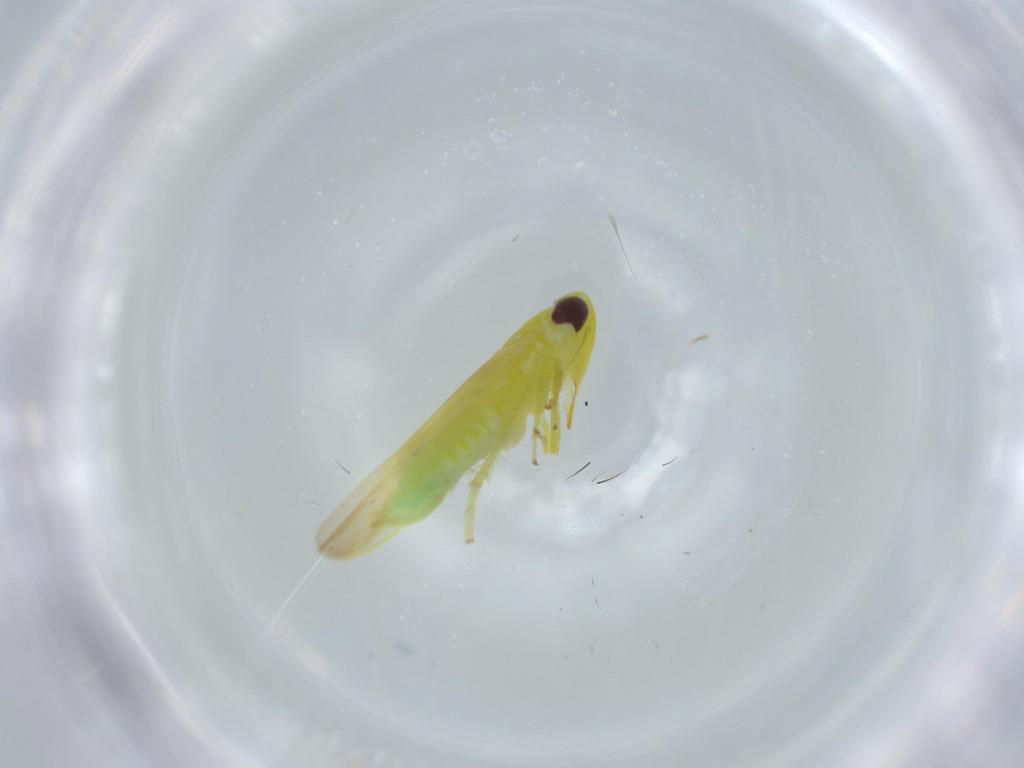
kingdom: Animalia
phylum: Arthropoda
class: Insecta
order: Hemiptera
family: Cicadellidae
